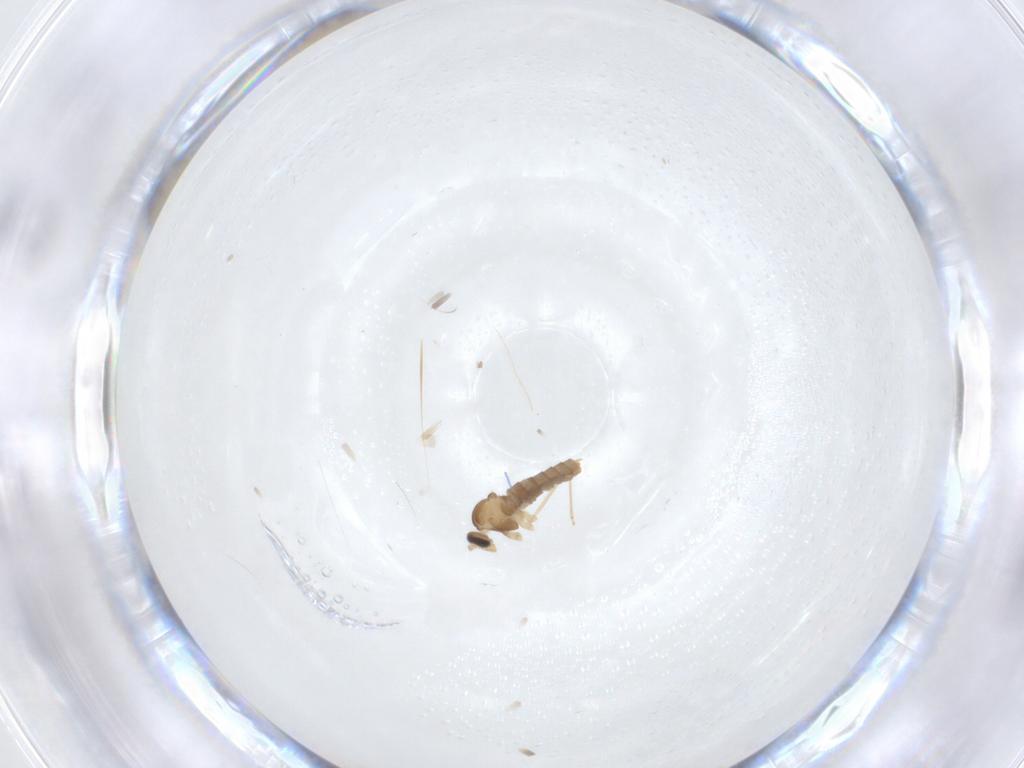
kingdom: Animalia
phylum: Arthropoda
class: Insecta
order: Diptera
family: Cecidomyiidae
